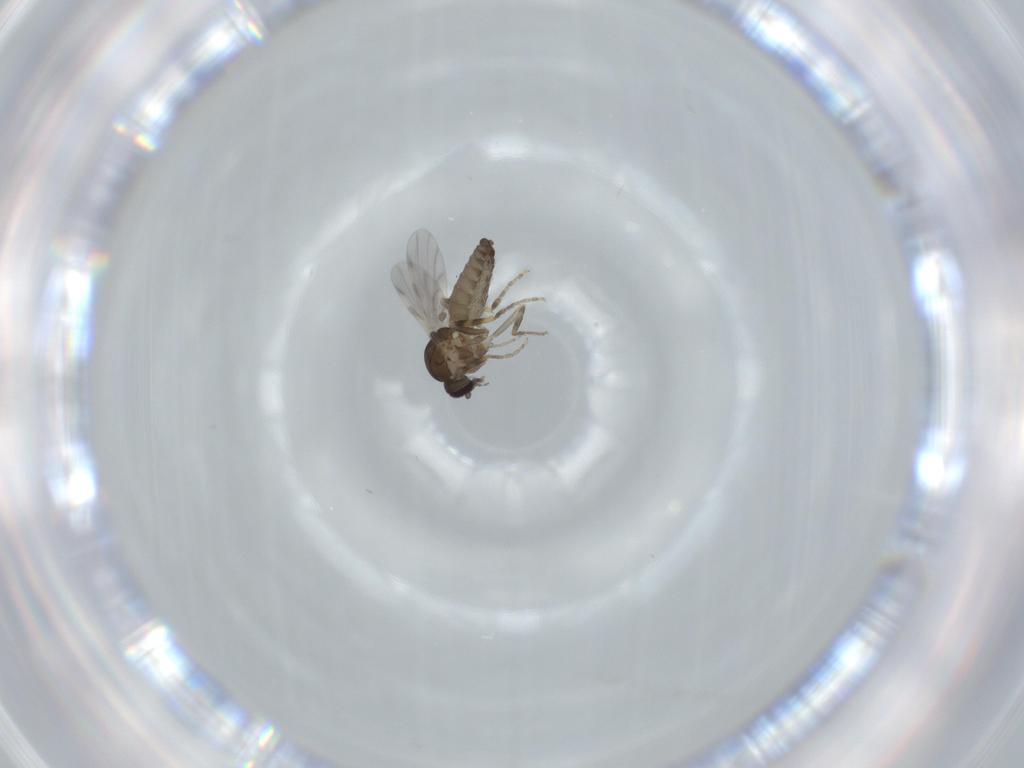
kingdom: Animalia
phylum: Arthropoda
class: Insecta
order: Diptera
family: Ceratopogonidae
